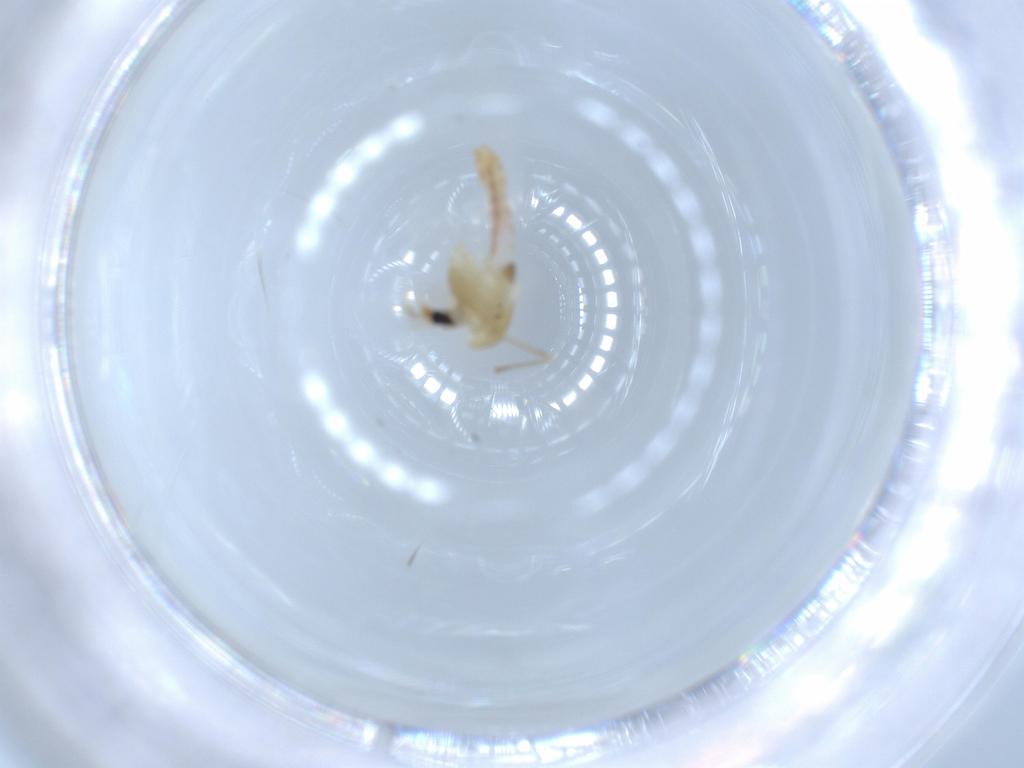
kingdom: Animalia
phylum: Arthropoda
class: Insecta
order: Diptera
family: Chironomidae
